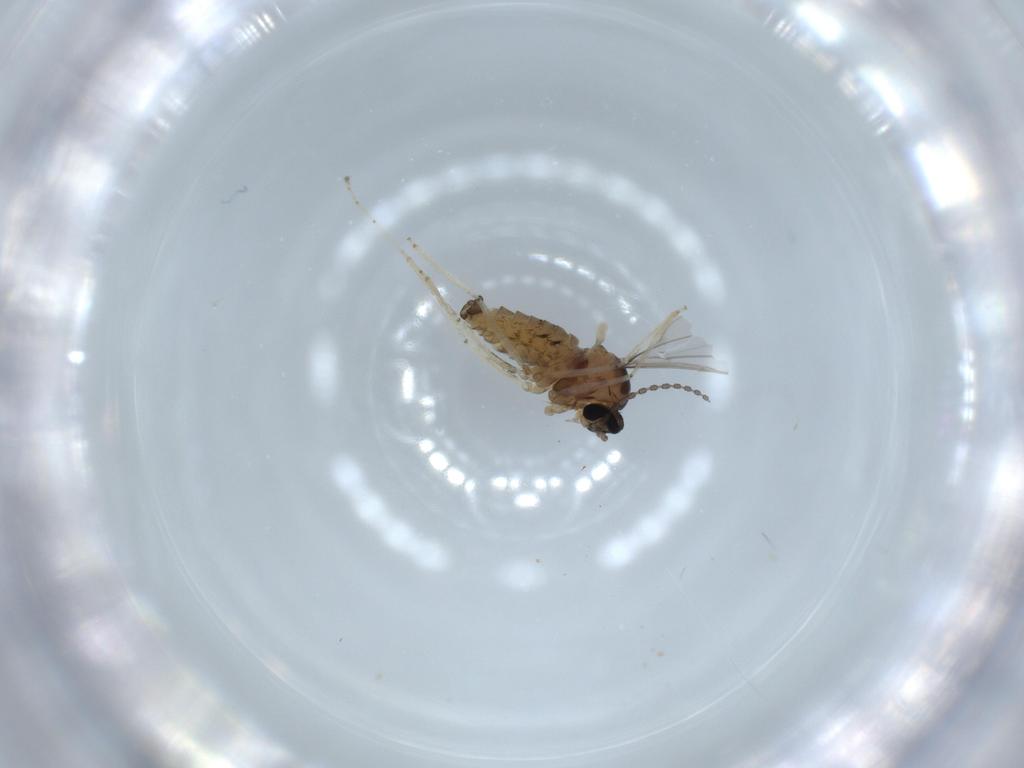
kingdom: Animalia
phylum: Arthropoda
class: Insecta
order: Diptera
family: Cecidomyiidae
